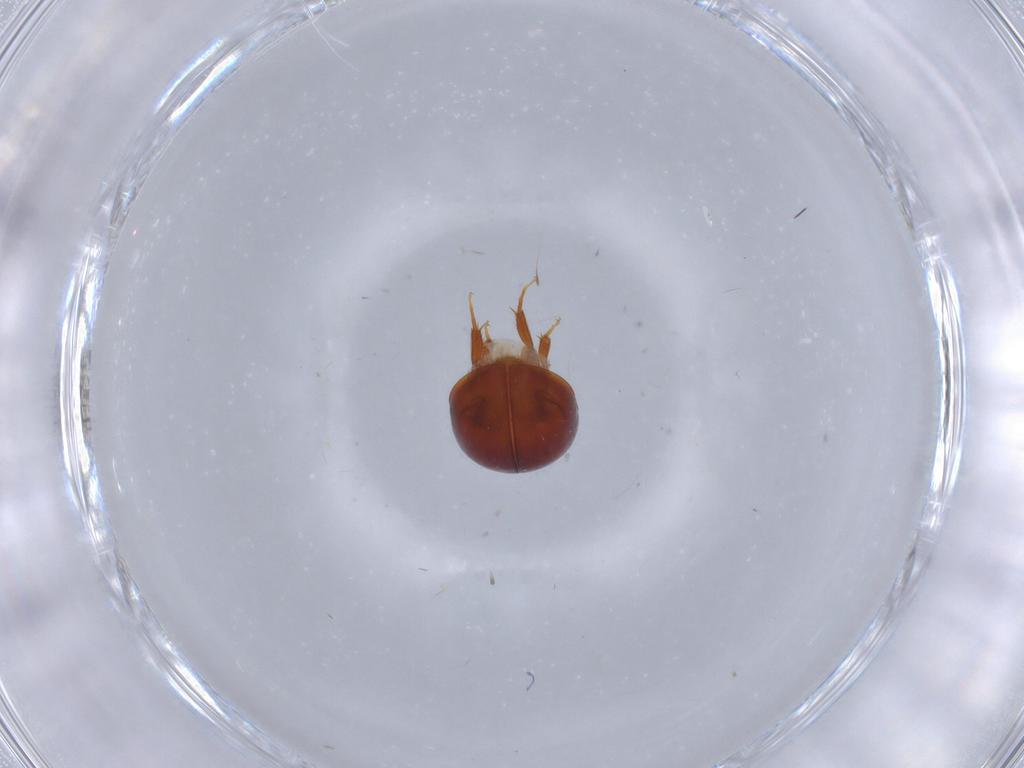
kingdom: Animalia
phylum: Arthropoda
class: Insecta
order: Coleoptera
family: Phalacridae
